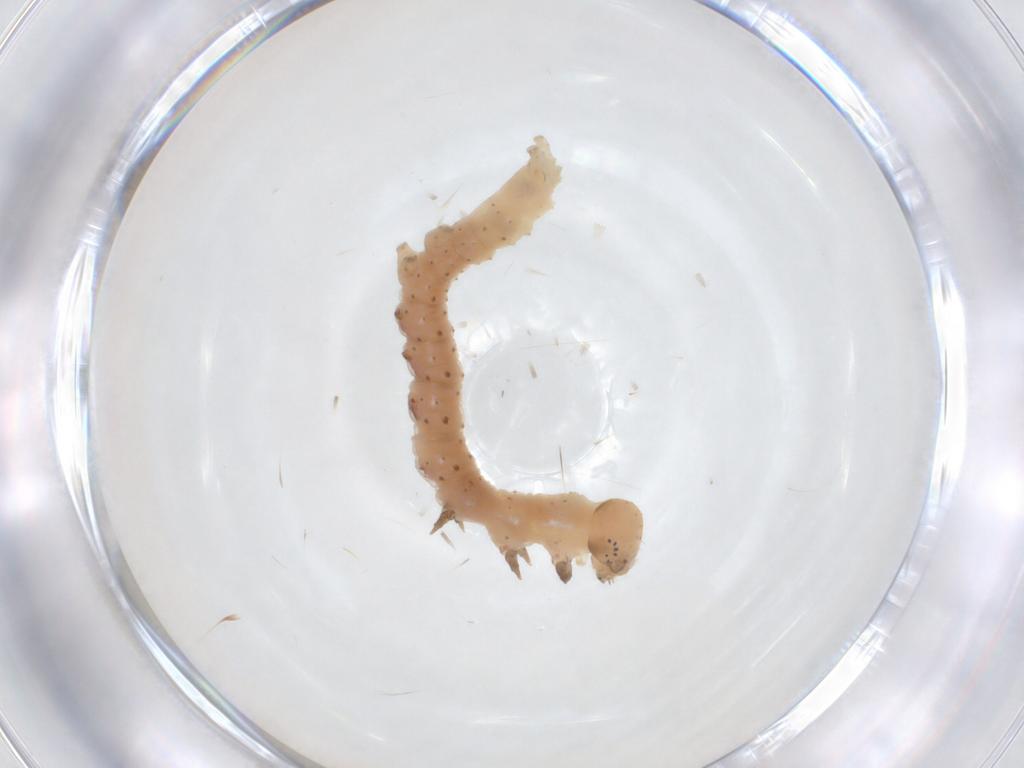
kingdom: Animalia
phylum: Arthropoda
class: Insecta
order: Lepidoptera
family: Erebidae
